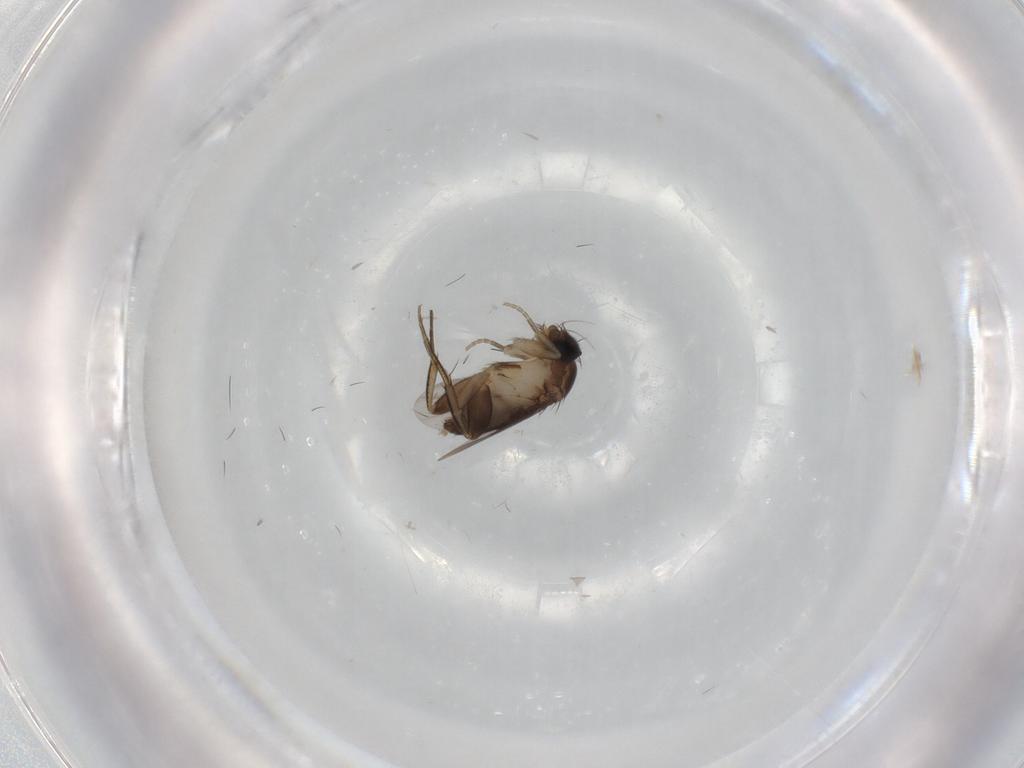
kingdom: Animalia
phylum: Arthropoda
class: Insecta
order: Diptera
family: Phoridae
